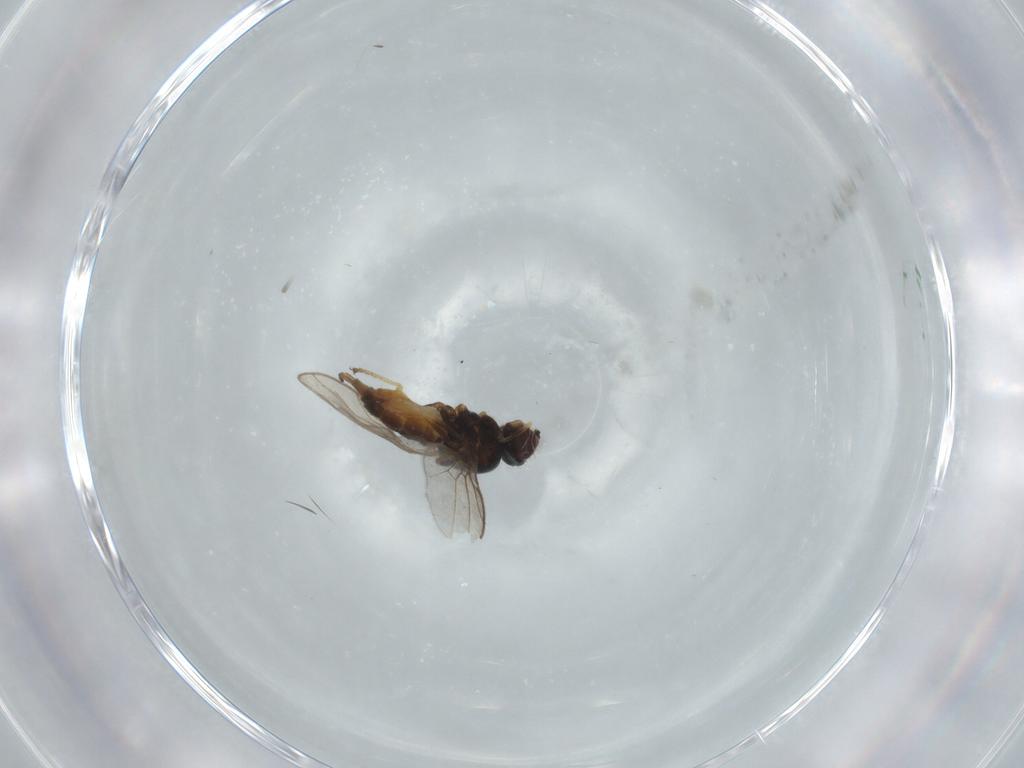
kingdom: Animalia
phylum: Arthropoda
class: Insecta
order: Diptera
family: Chloropidae
